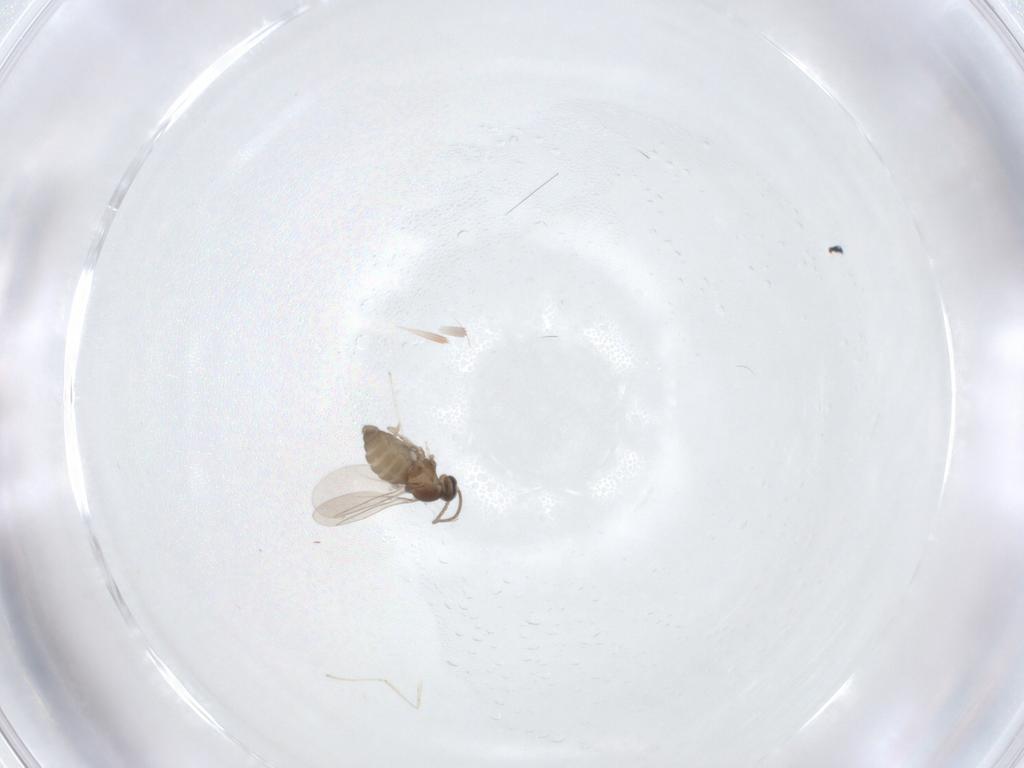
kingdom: Animalia
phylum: Arthropoda
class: Insecta
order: Diptera
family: Cecidomyiidae
